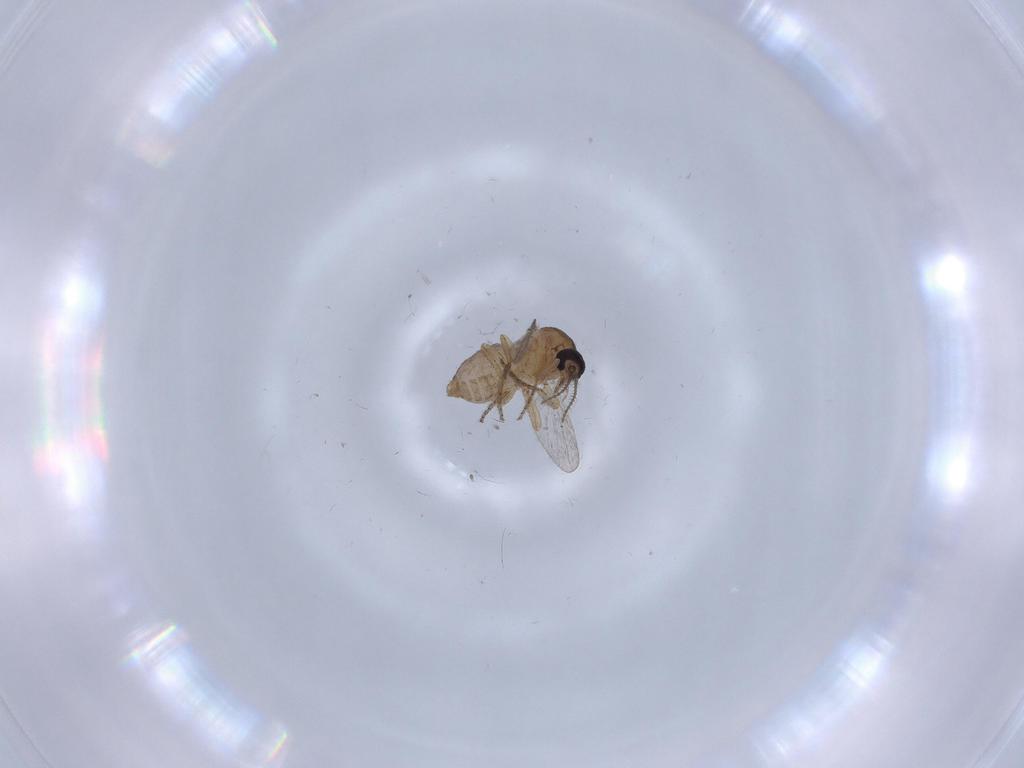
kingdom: Animalia
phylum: Arthropoda
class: Insecta
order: Diptera
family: Ceratopogonidae
